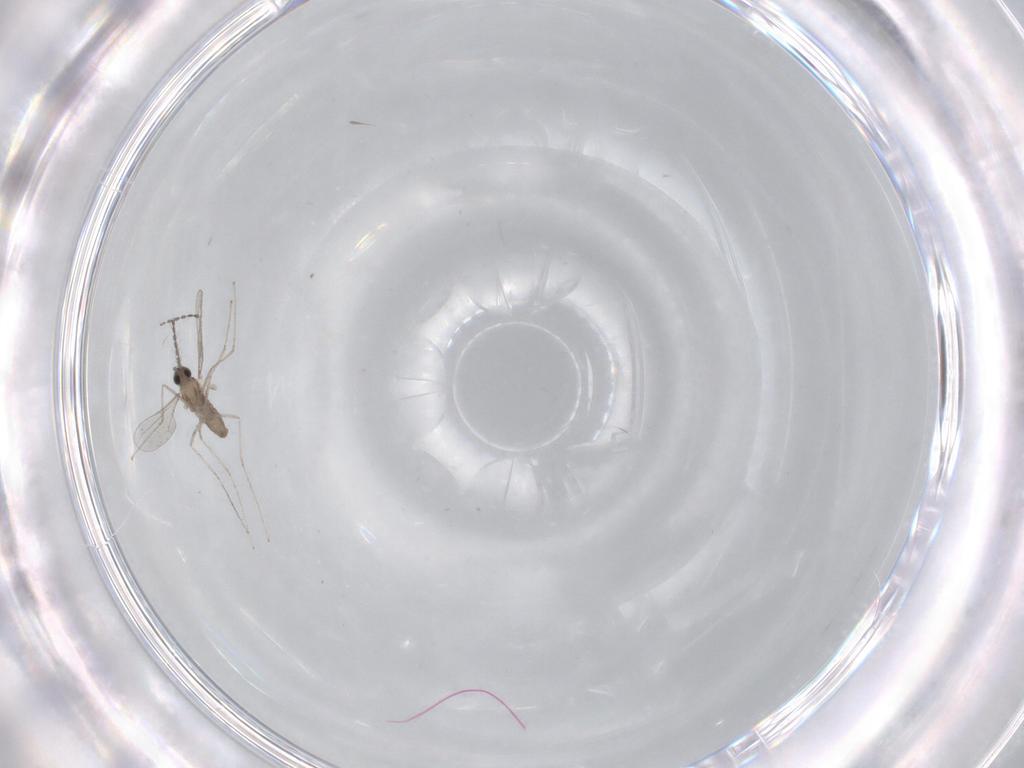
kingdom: Animalia
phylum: Arthropoda
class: Insecta
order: Diptera
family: Cecidomyiidae
